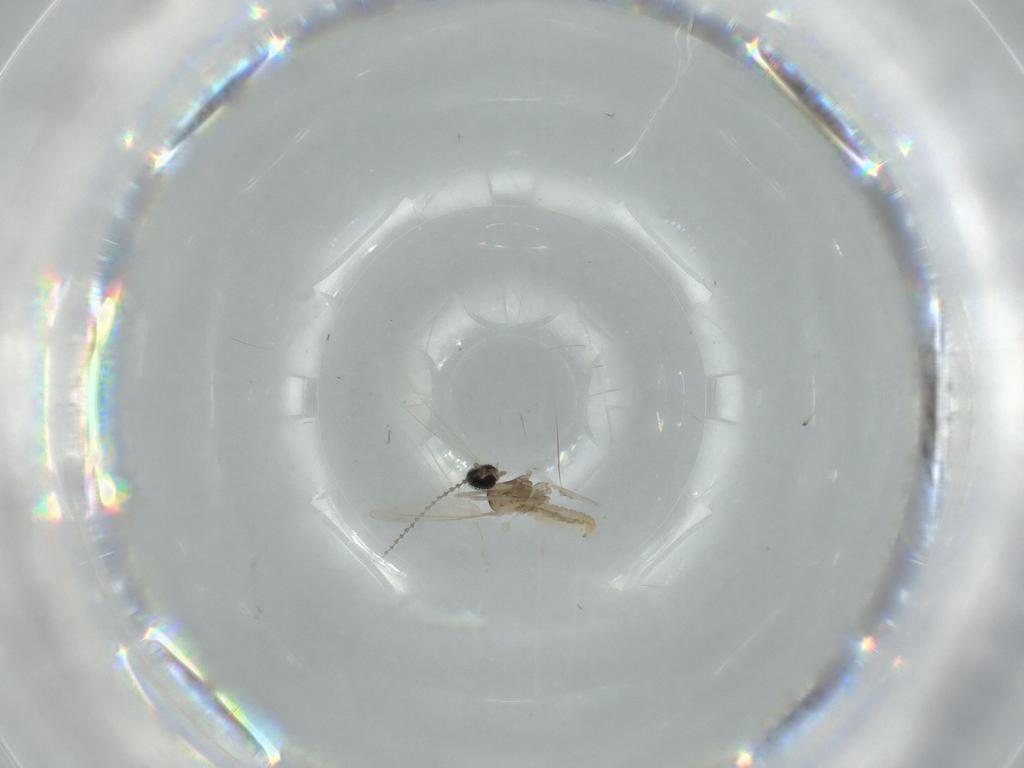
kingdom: Animalia
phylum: Arthropoda
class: Insecta
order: Diptera
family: Cecidomyiidae
